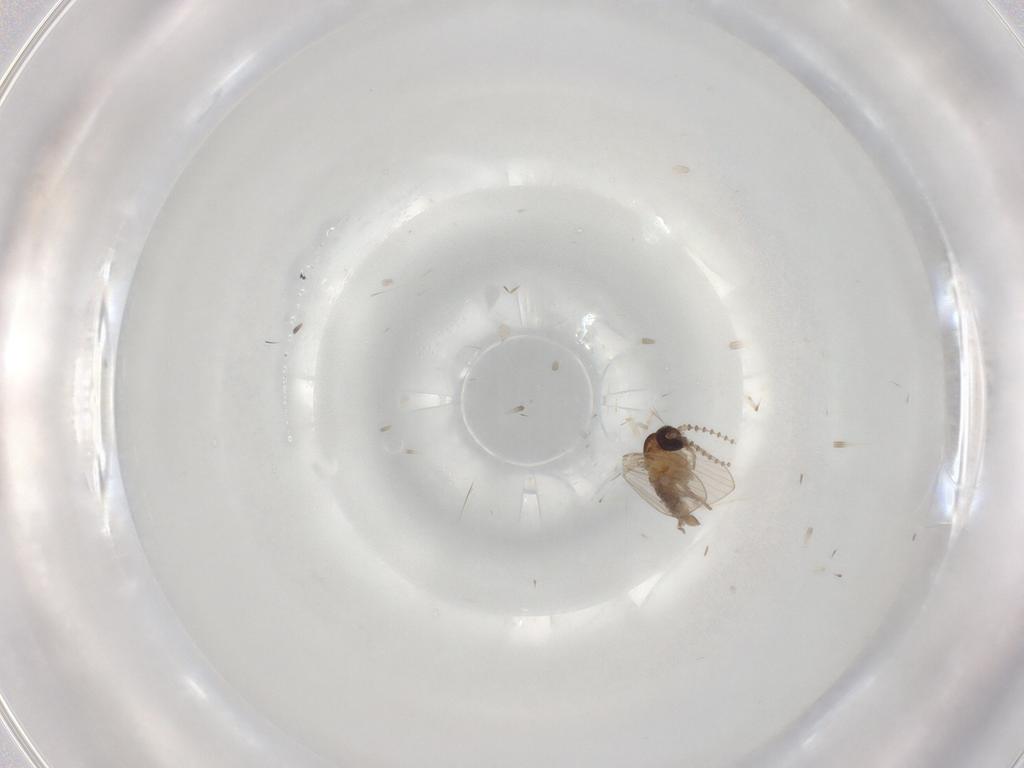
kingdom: Animalia
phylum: Arthropoda
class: Insecta
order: Diptera
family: Psychodidae
